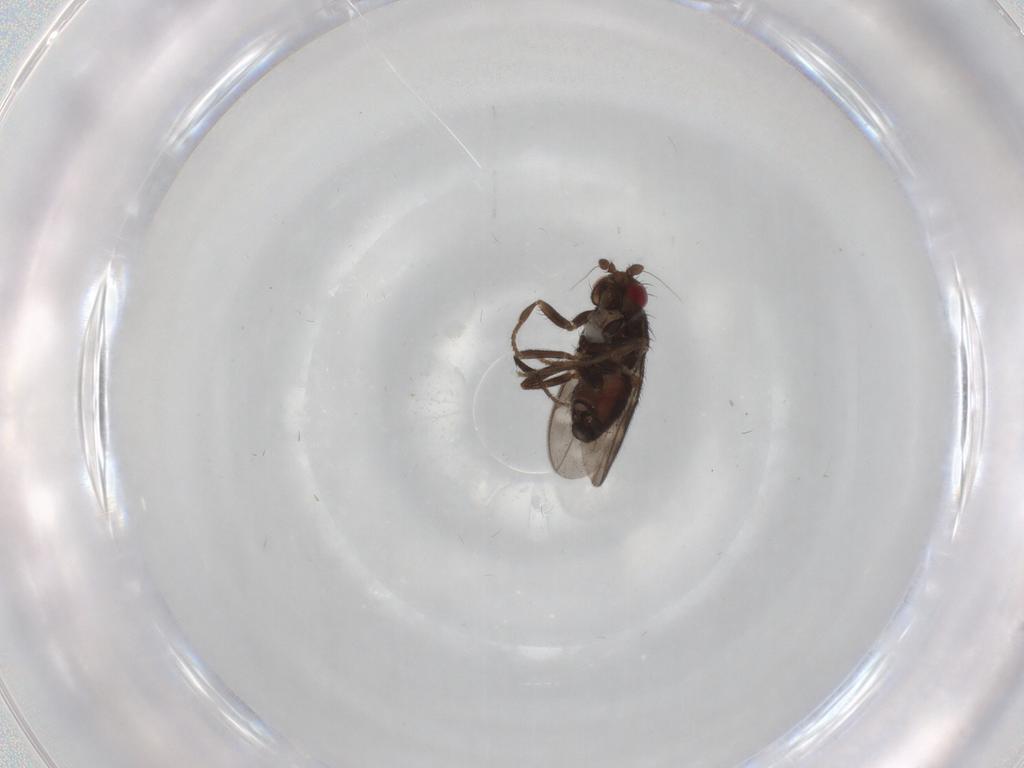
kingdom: Animalia
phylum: Arthropoda
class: Insecta
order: Diptera
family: Sphaeroceridae
